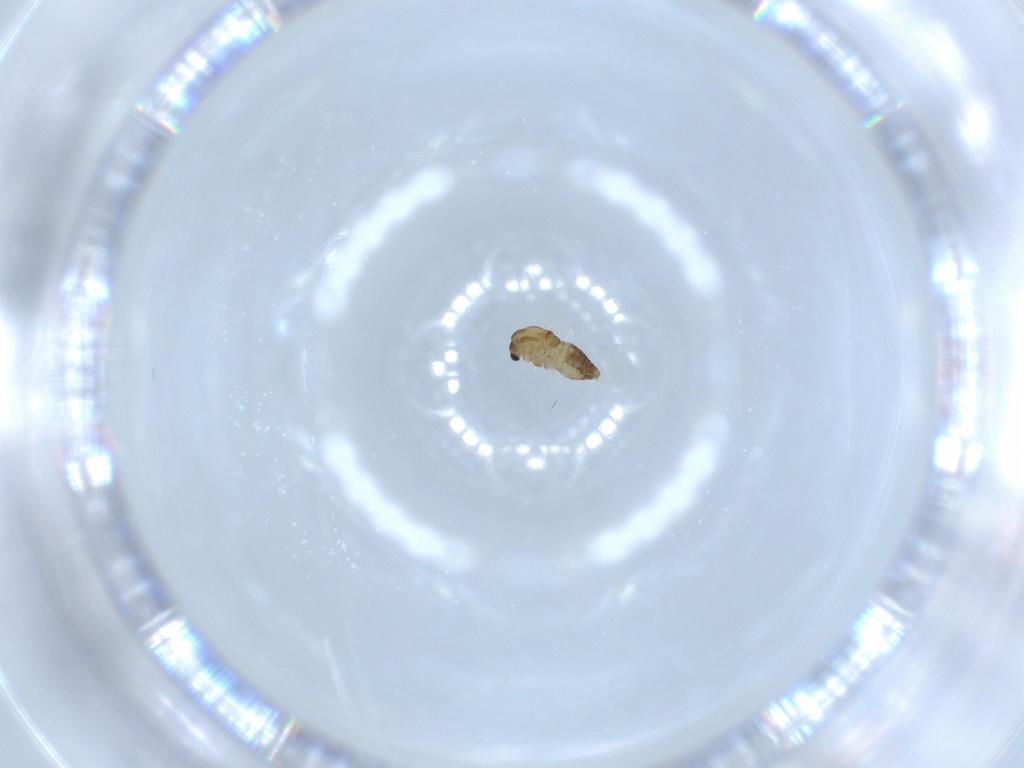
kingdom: Animalia
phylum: Arthropoda
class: Insecta
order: Diptera
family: Chironomidae
